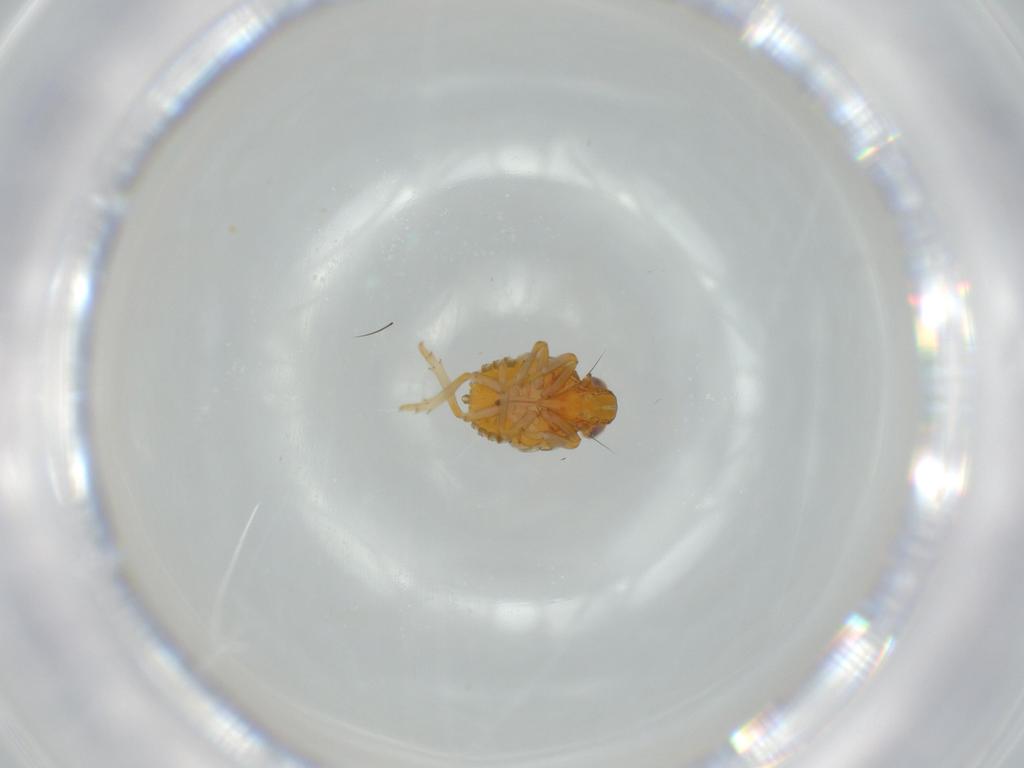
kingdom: Animalia
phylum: Arthropoda
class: Insecta
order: Hemiptera
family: Issidae
